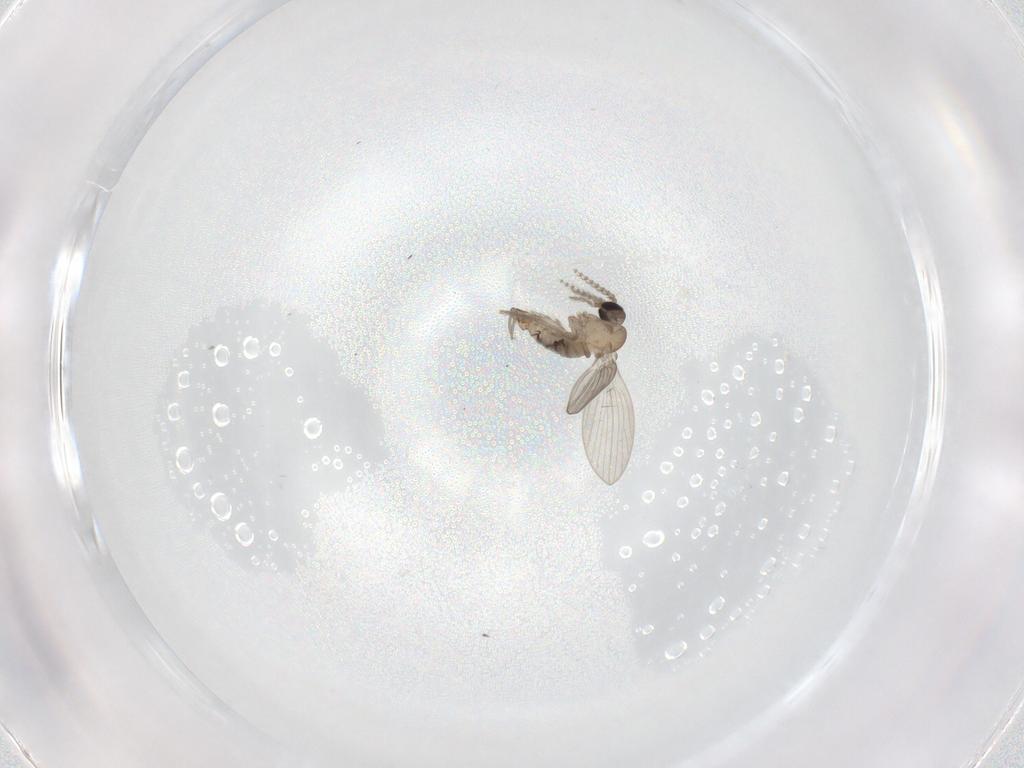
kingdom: Animalia
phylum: Arthropoda
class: Insecta
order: Diptera
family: Psychodidae
